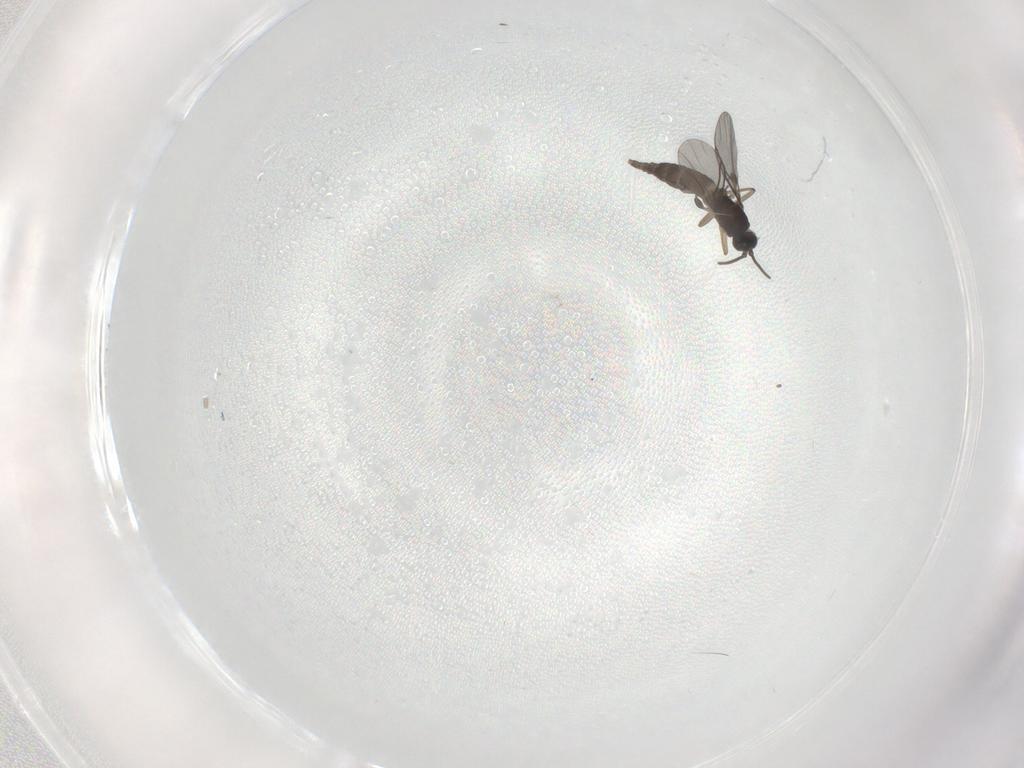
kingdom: Animalia
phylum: Arthropoda
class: Insecta
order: Diptera
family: Sciaridae
